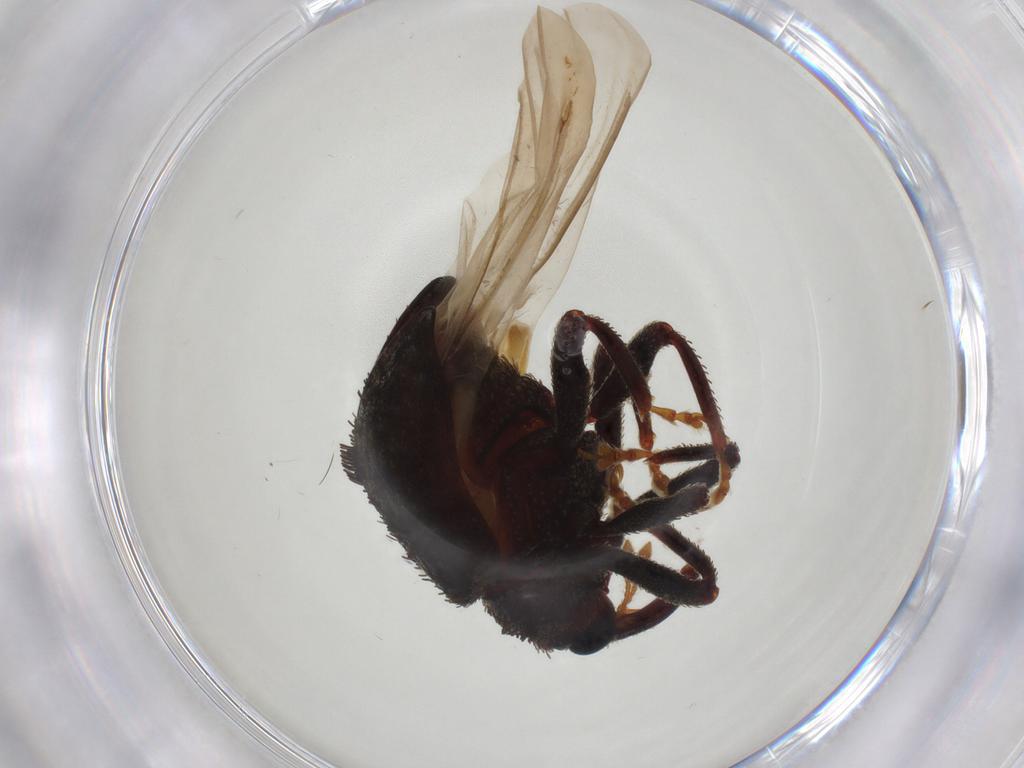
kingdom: Animalia
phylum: Arthropoda
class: Insecta
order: Coleoptera
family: Curculionidae
